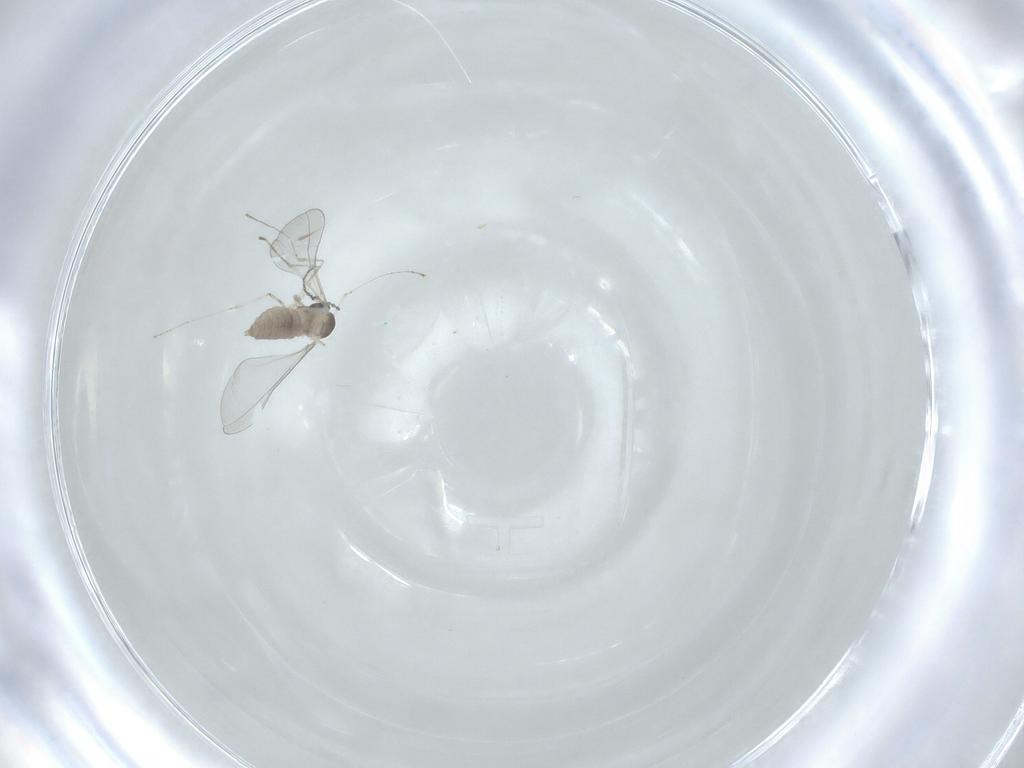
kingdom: Animalia
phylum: Arthropoda
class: Insecta
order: Diptera
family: Cecidomyiidae
